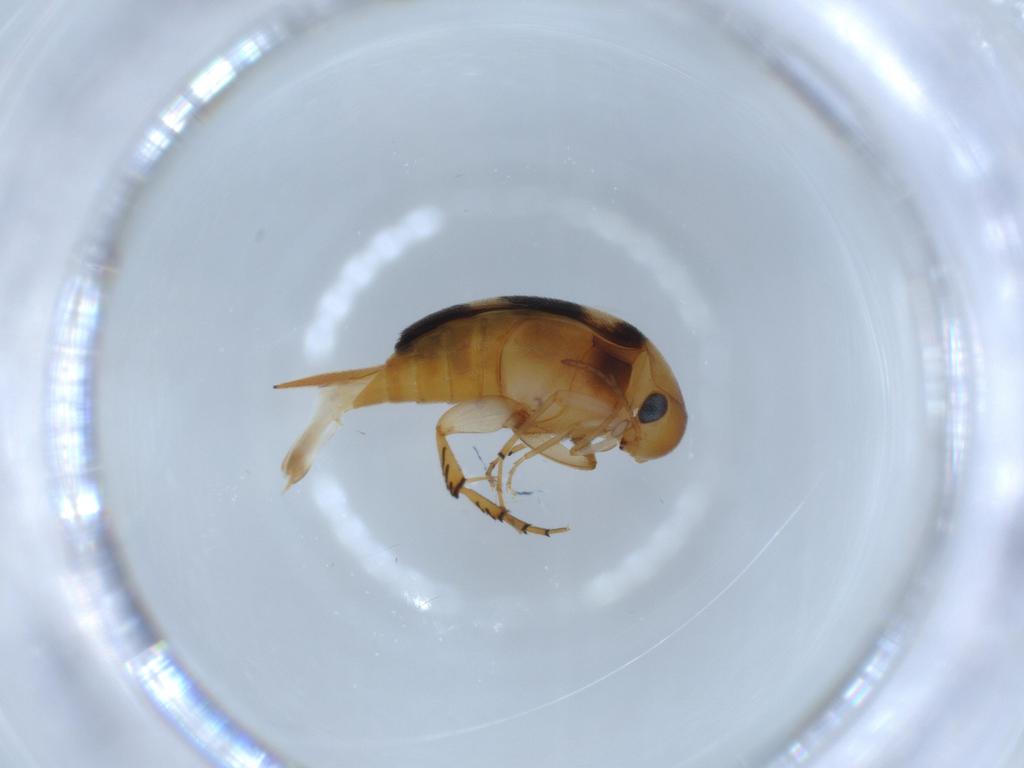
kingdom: Animalia
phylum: Arthropoda
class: Insecta
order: Coleoptera
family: Mordellidae
